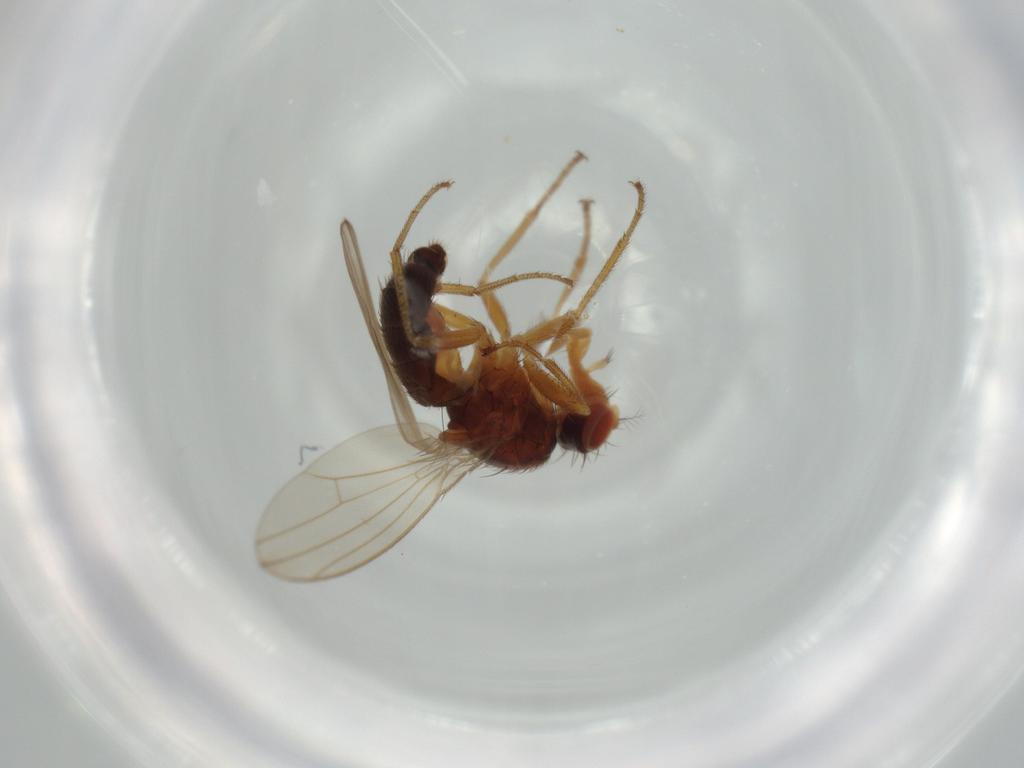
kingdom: Animalia
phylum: Arthropoda
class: Insecta
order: Diptera
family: Drosophilidae
